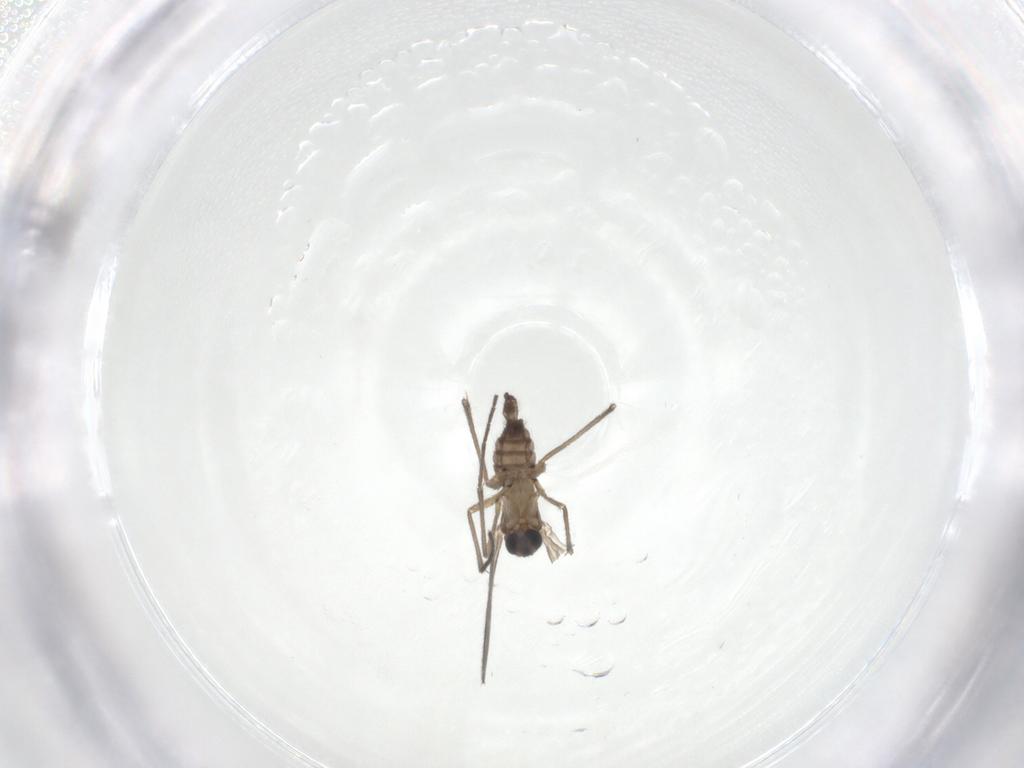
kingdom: Animalia
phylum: Arthropoda
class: Insecta
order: Diptera
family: Sciaridae
